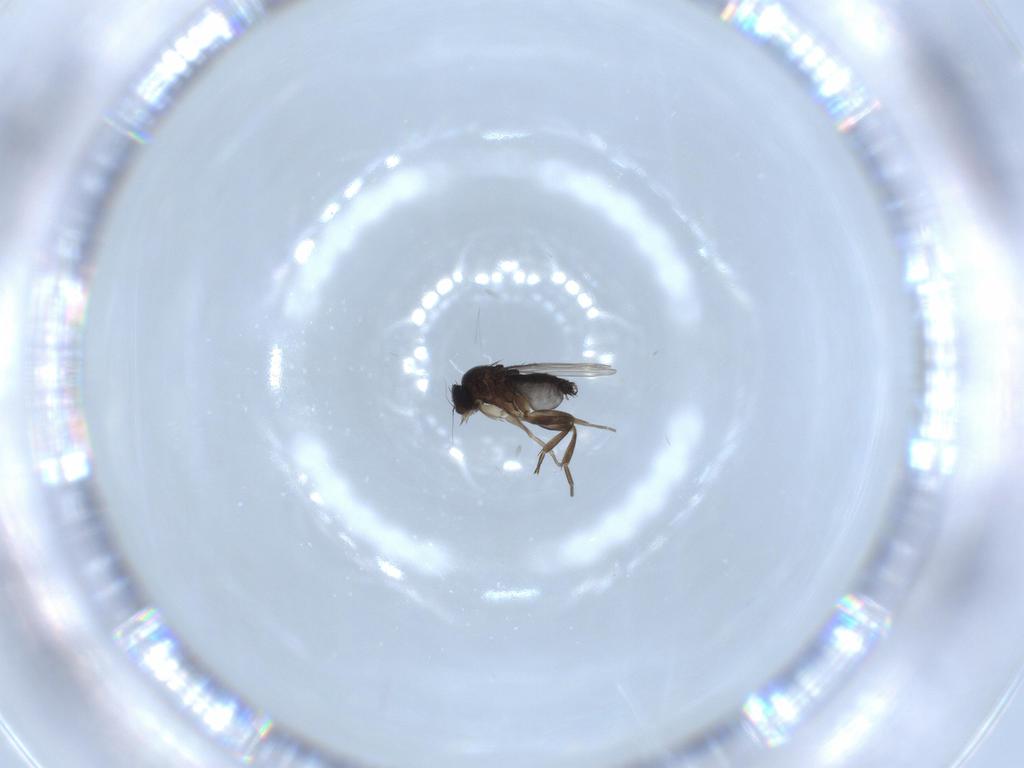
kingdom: Animalia
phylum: Arthropoda
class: Insecta
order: Diptera
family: Phoridae
